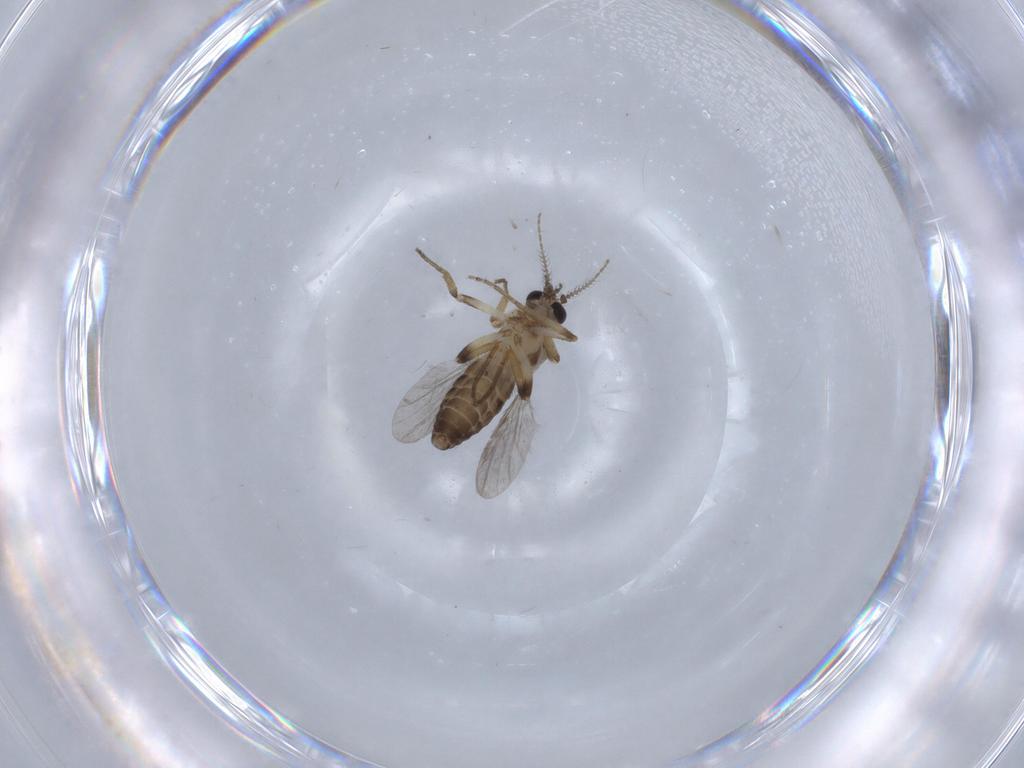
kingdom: Animalia
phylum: Arthropoda
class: Insecta
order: Diptera
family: Ceratopogonidae
